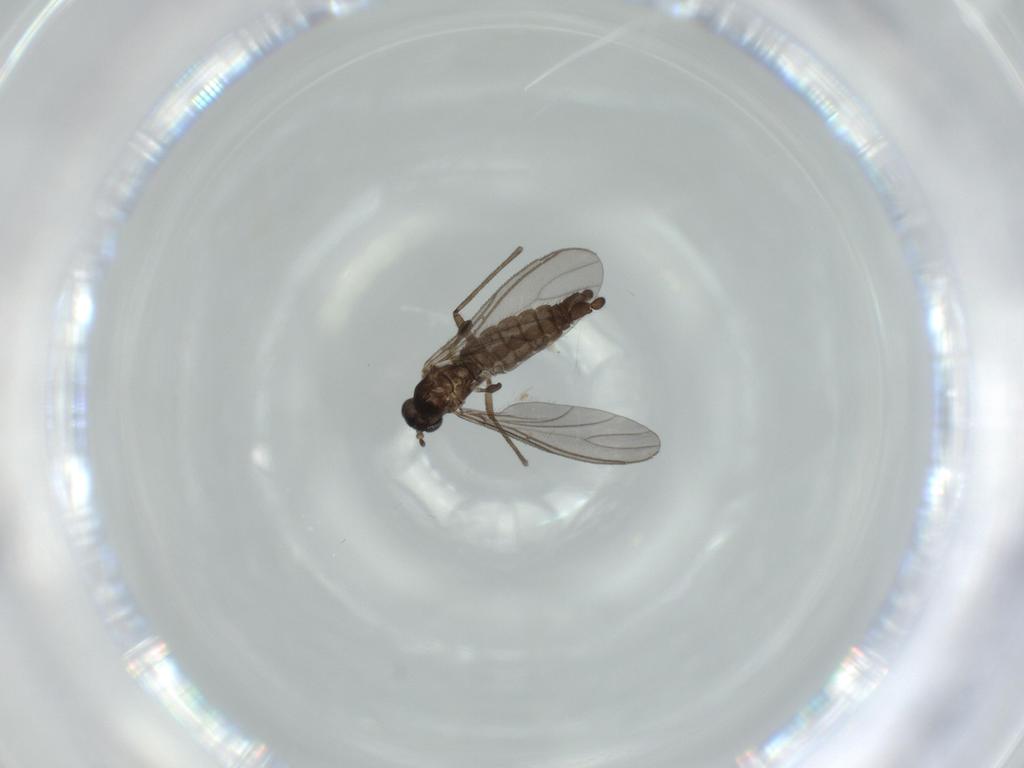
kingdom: Animalia
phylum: Arthropoda
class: Insecta
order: Diptera
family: Sciaridae
